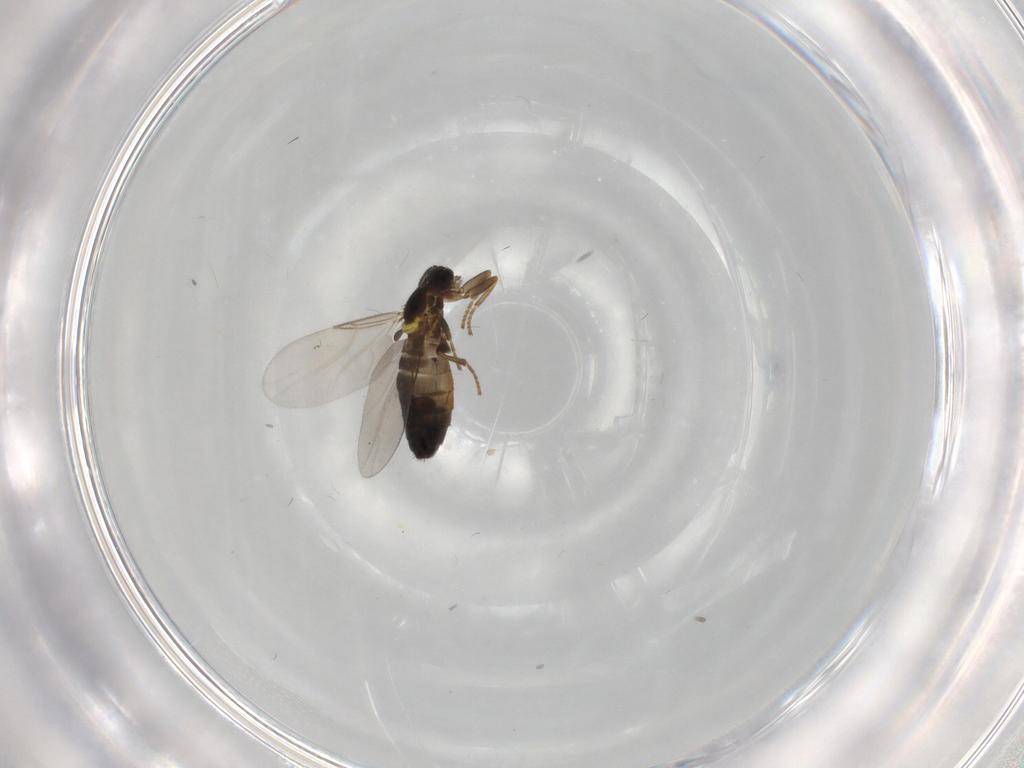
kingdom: Animalia
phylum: Arthropoda
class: Insecta
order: Diptera
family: Scatopsidae
